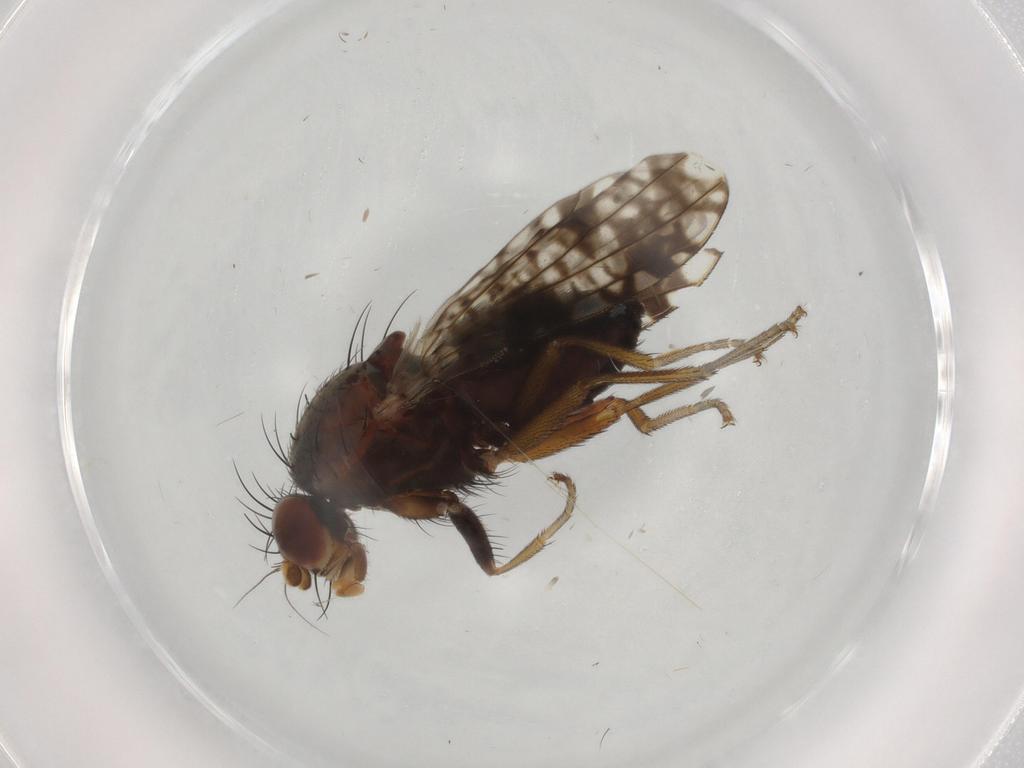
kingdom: Animalia
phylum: Arthropoda
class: Insecta
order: Diptera
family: Tephritidae
